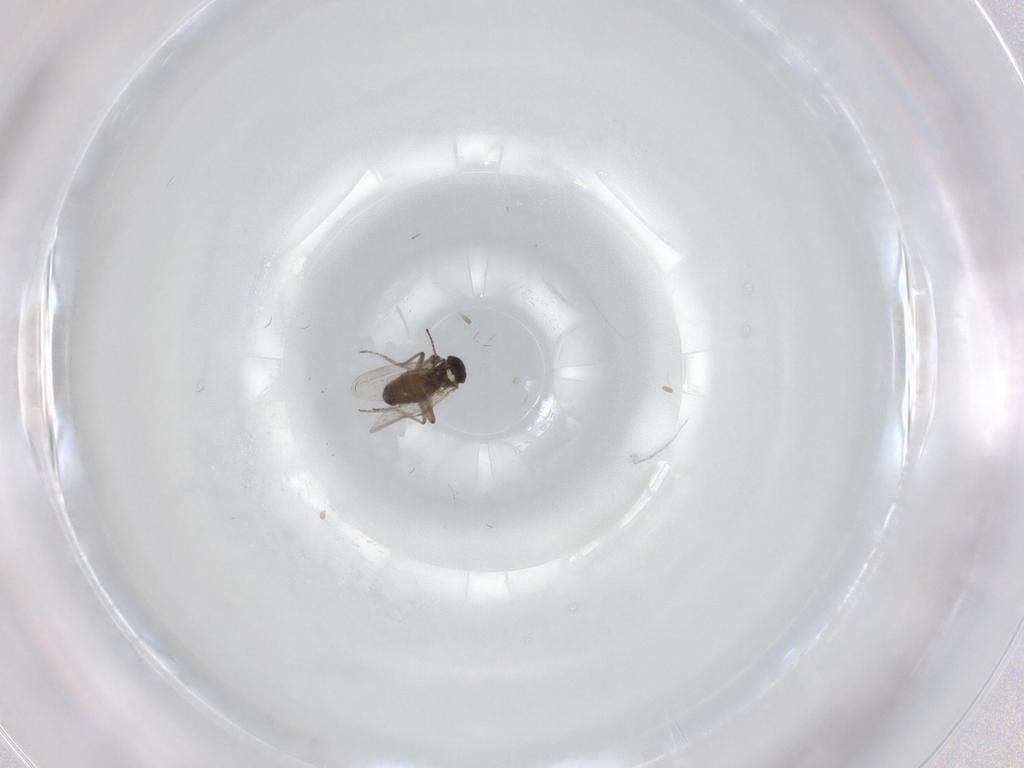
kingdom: Animalia
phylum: Arthropoda
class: Insecta
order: Diptera
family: Ceratopogonidae
